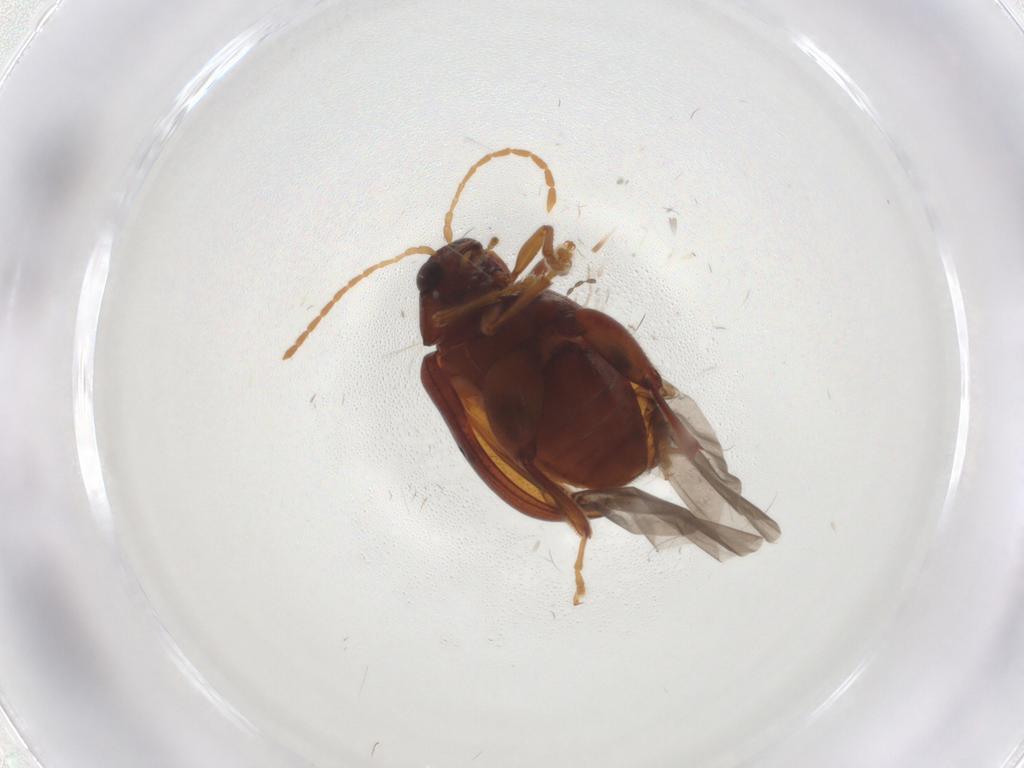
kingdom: Animalia
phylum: Arthropoda
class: Insecta
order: Coleoptera
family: Chrysomelidae
